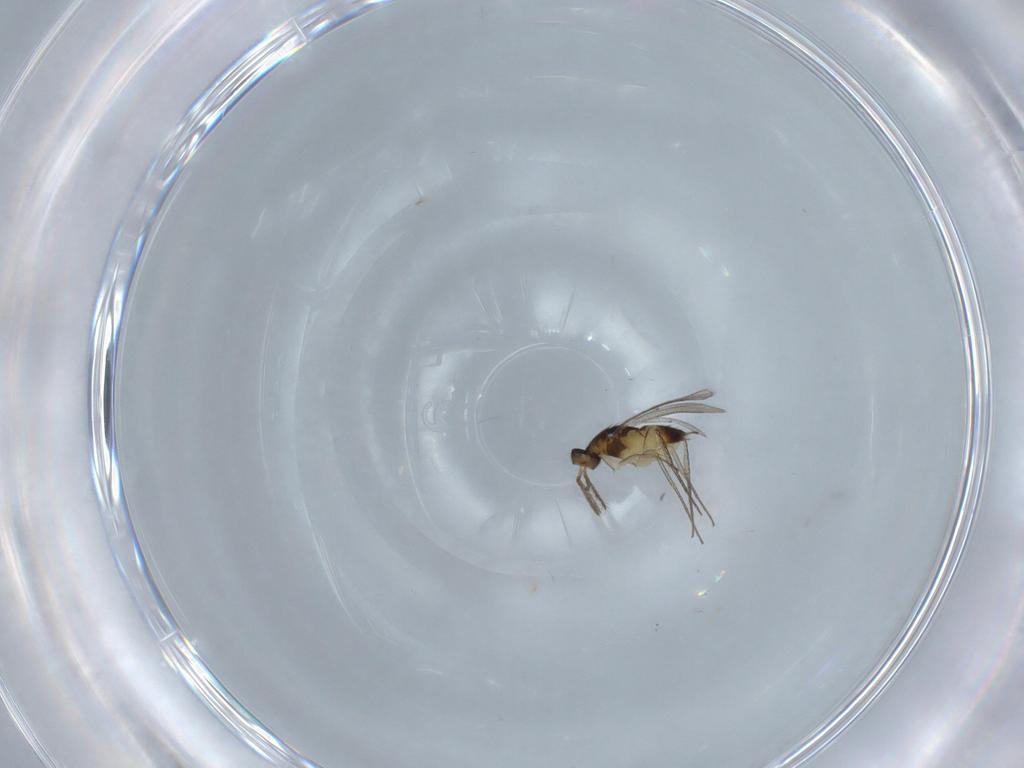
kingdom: Animalia
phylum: Arthropoda
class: Insecta
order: Hymenoptera
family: Eulophidae
